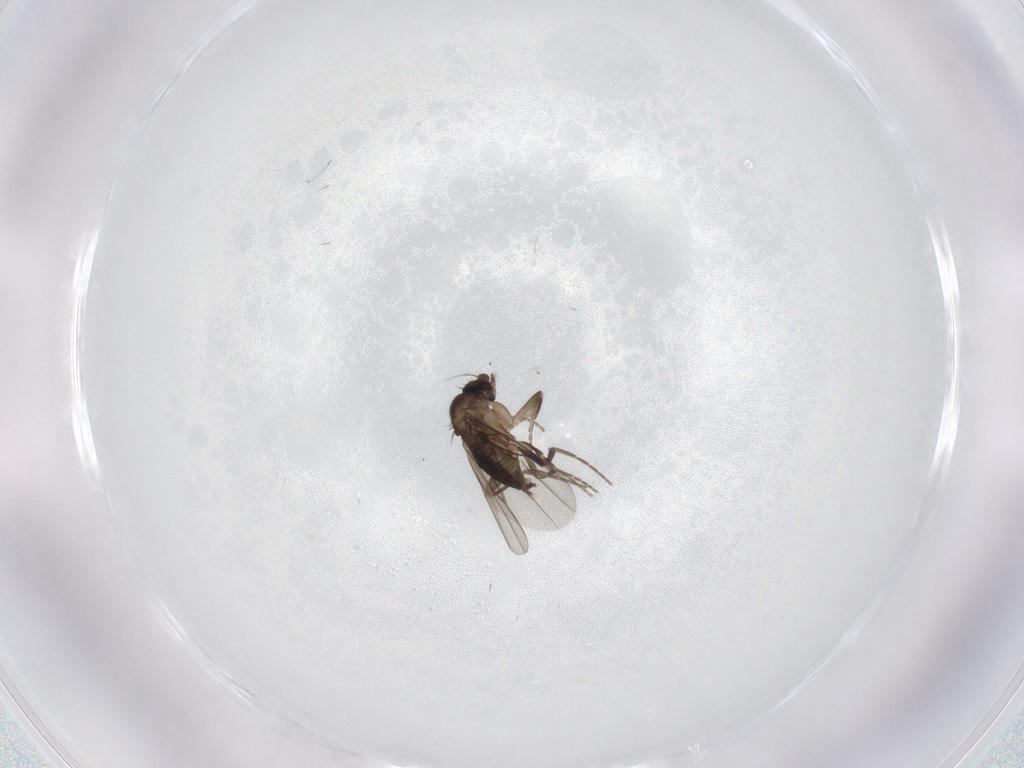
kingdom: Animalia
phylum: Arthropoda
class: Insecta
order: Diptera
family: Phoridae
